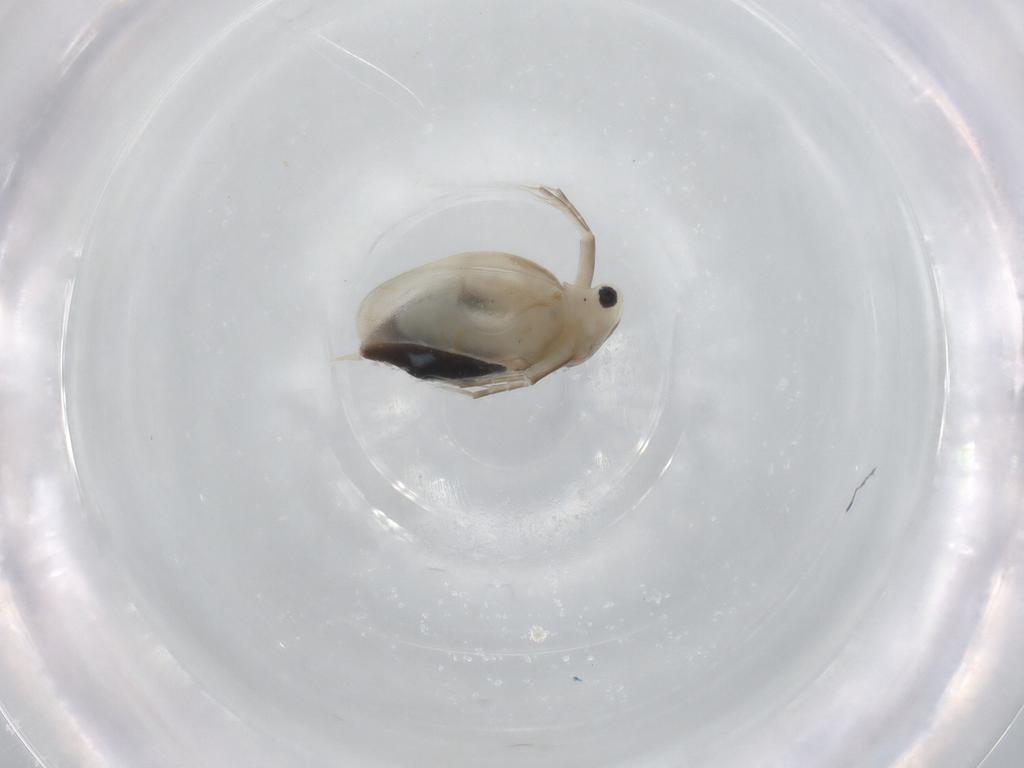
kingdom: Animalia
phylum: Arthropoda
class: Branchiopoda
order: Diplostraca
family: Daphniidae
